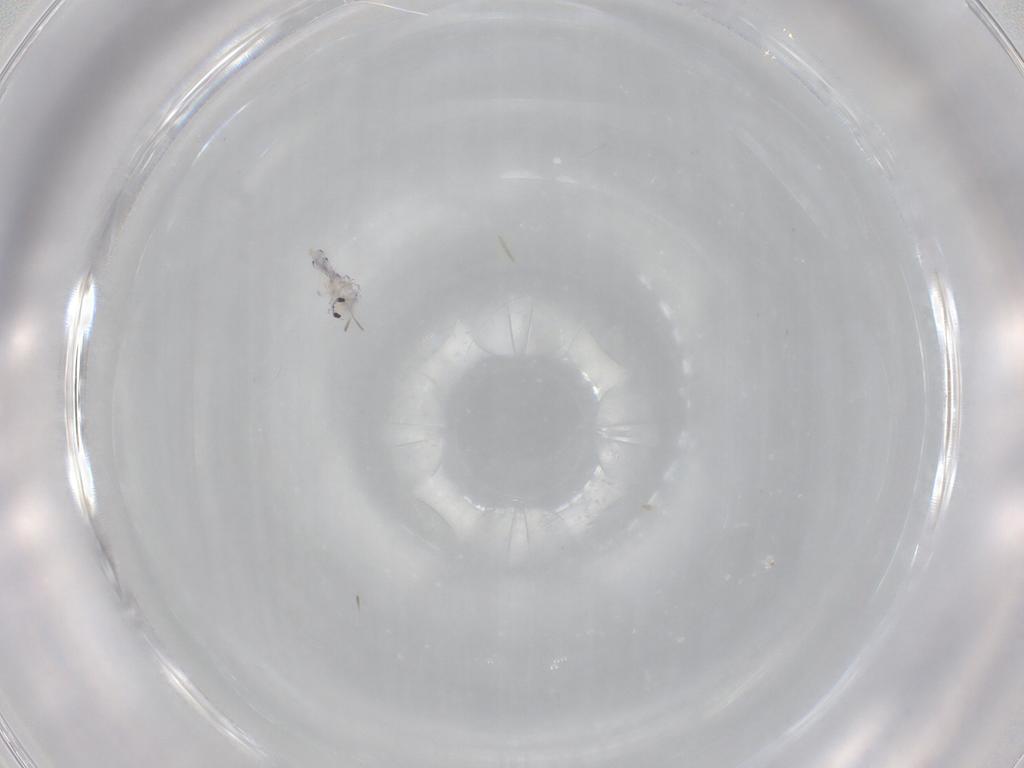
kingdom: Animalia
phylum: Arthropoda
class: Collembola
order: Entomobryomorpha
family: Entomobryidae
